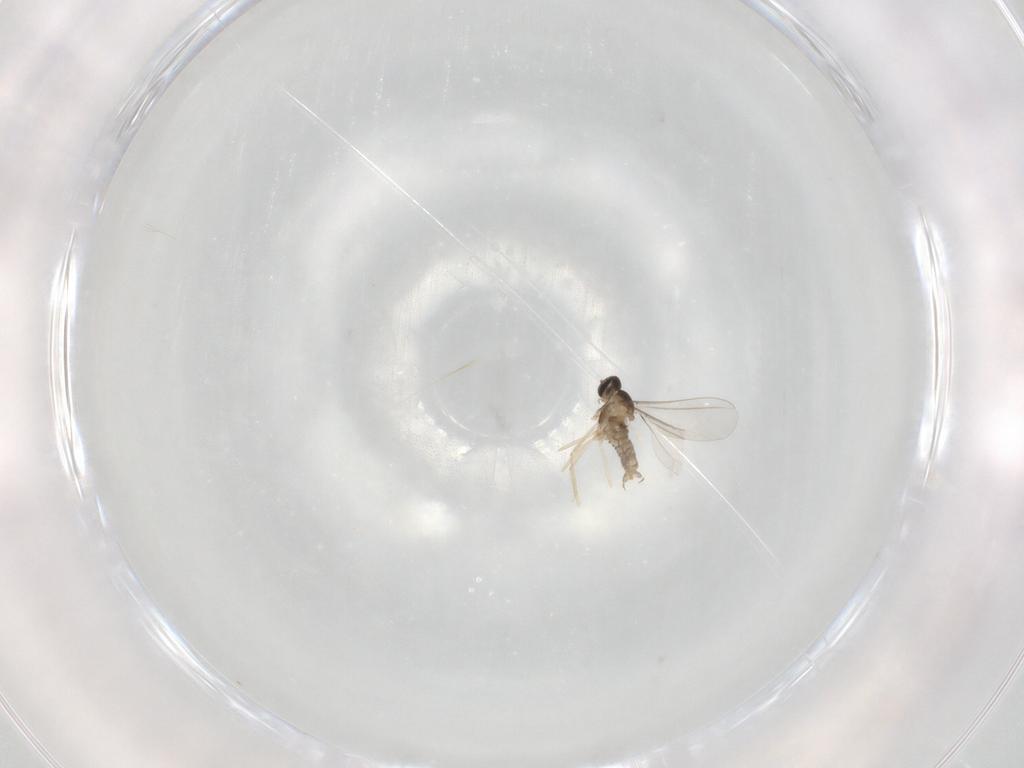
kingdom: Animalia
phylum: Arthropoda
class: Insecta
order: Diptera
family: Cecidomyiidae
